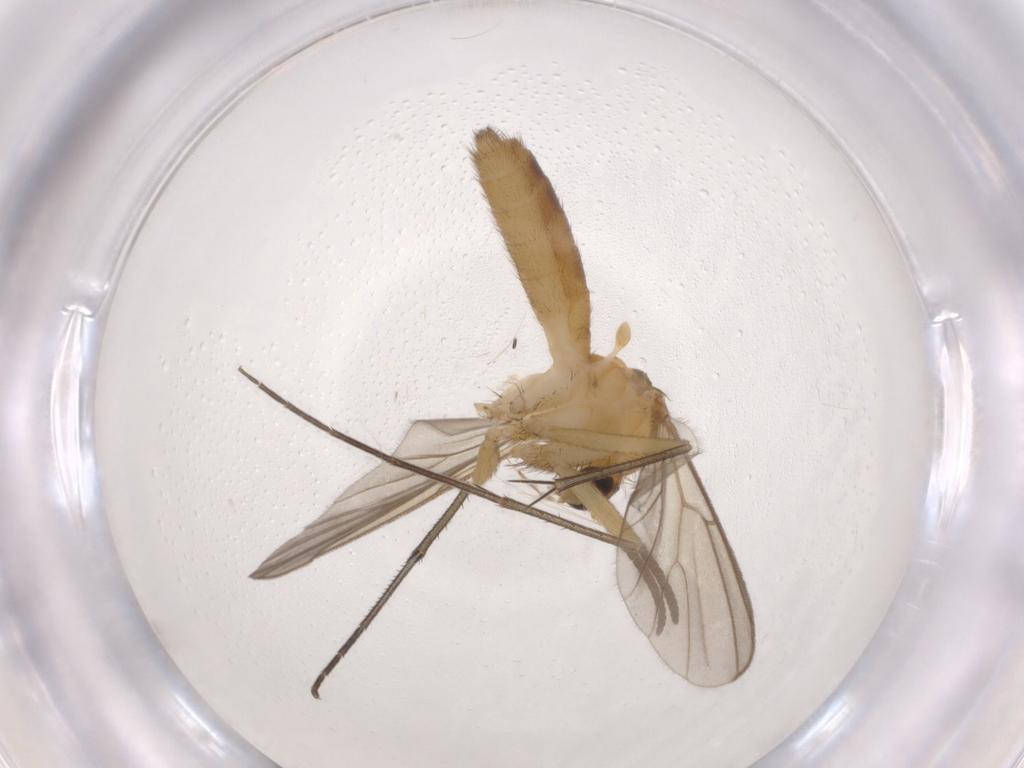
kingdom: Animalia
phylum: Arthropoda
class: Insecta
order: Diptera
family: Mycetophilidae
